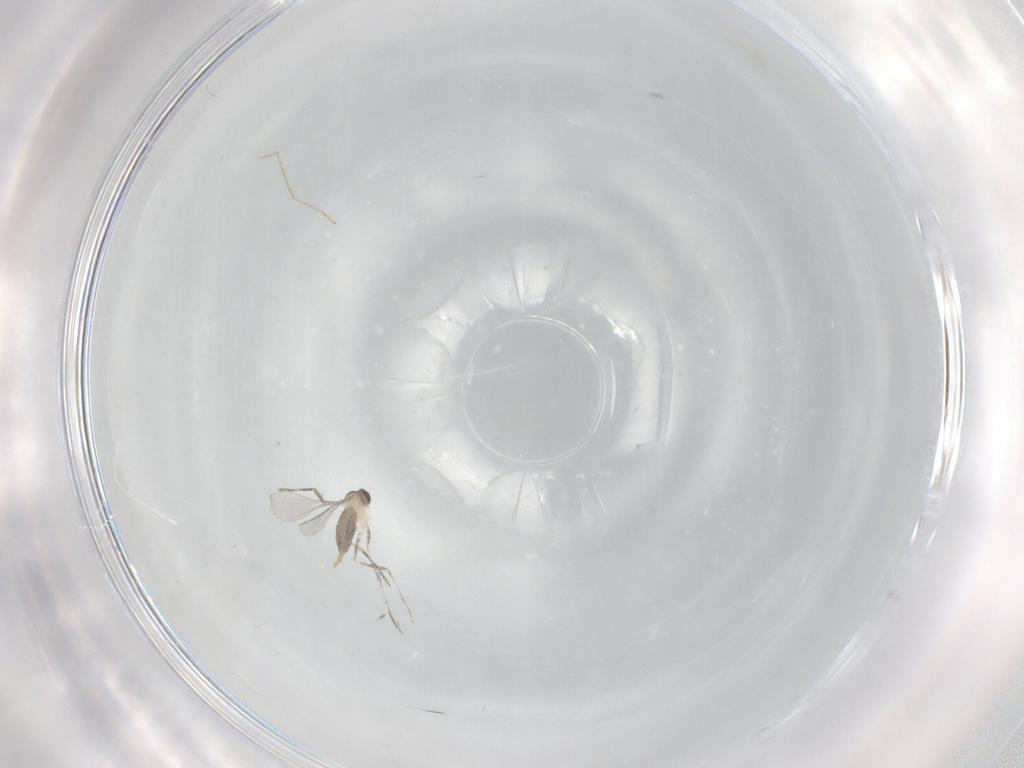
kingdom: Animalia
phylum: Arthropoda
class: Insecta
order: Diptera
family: Cecidomyiidae
